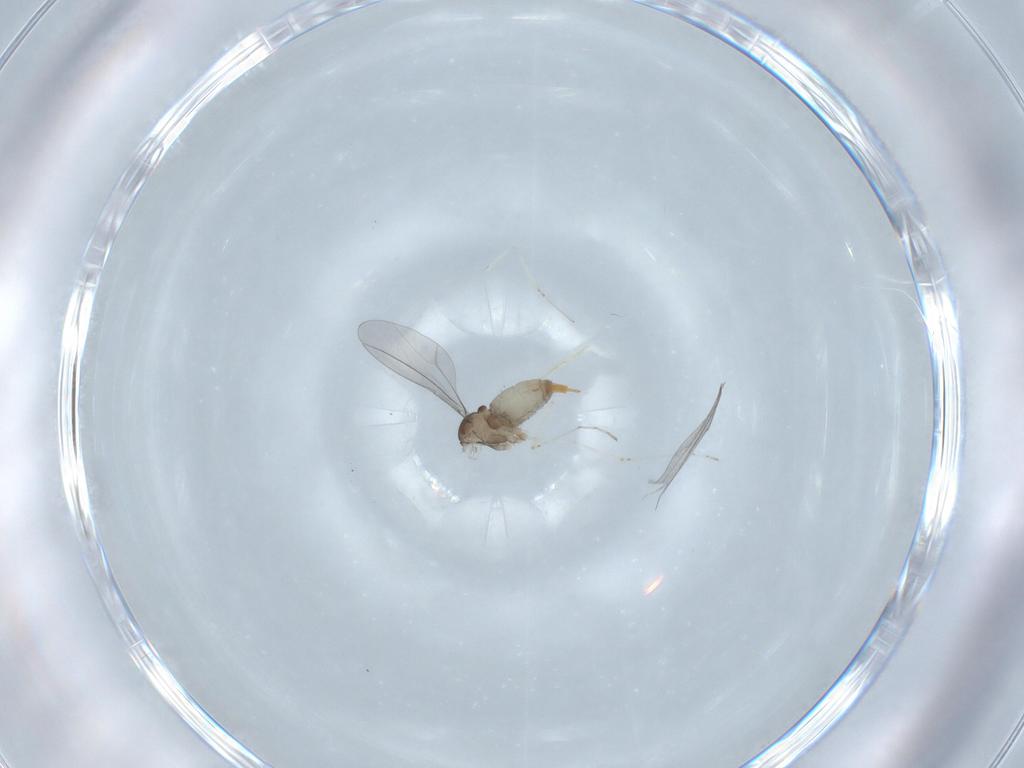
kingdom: Animalia
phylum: Arthropoda
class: Insecta
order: Diptera
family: Cecidomyiidae
